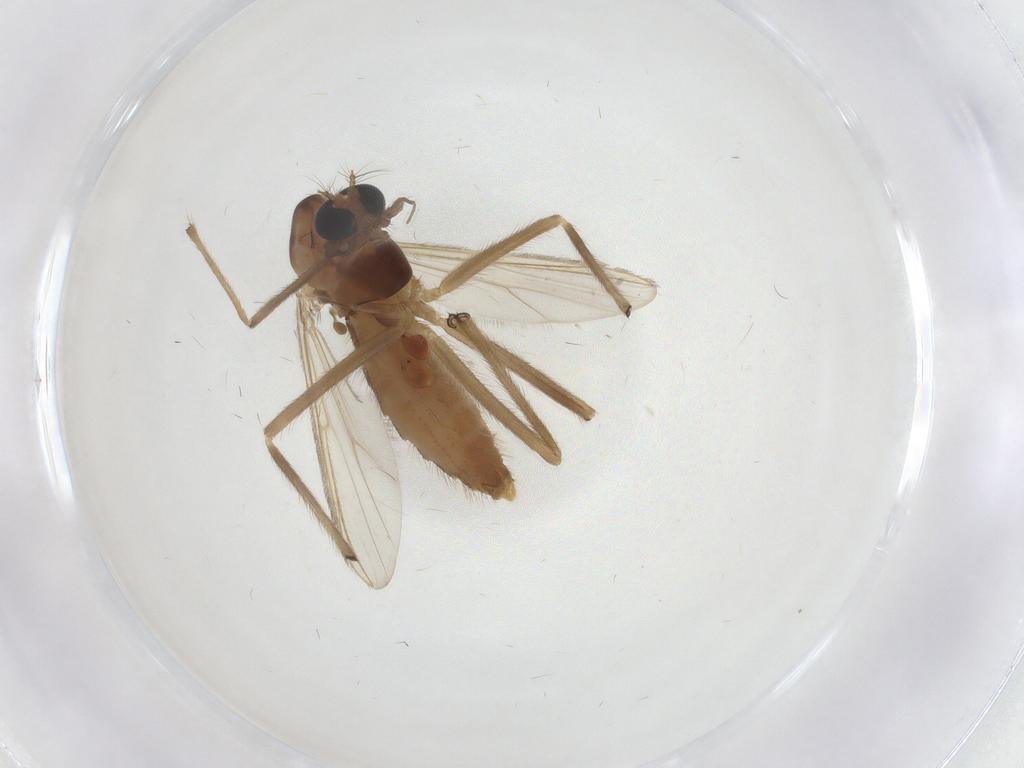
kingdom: Animalia
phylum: Arthropoda
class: Insecta
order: Diptera
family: Chironomidae
